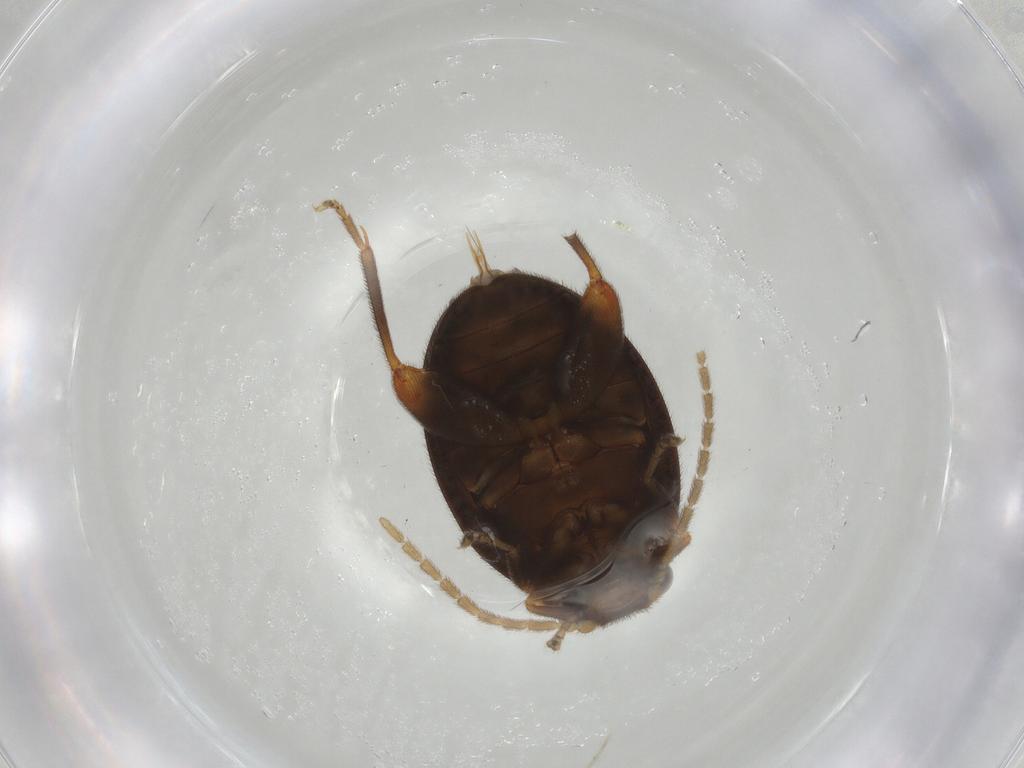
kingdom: Animalia
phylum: Arthropoda
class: Insecta
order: Coleoptera
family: Scirtidae
